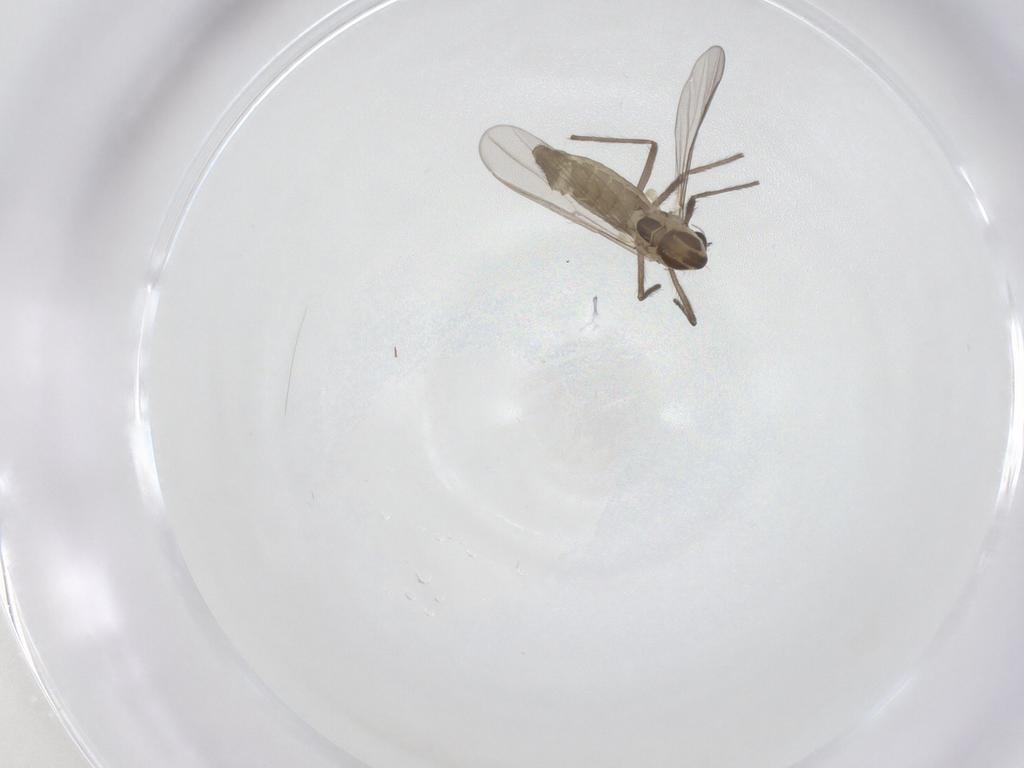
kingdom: Animalia
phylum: Arthropoda
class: Insecta
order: Diptera
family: Chironomidae
